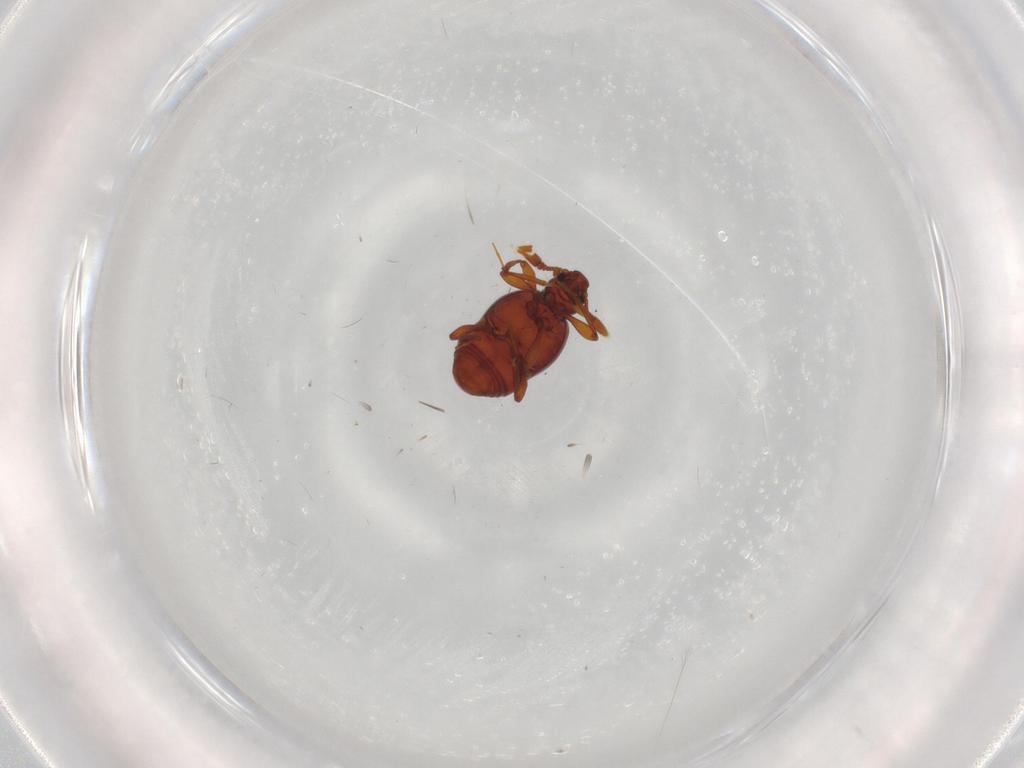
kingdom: Animalia
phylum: Arthropoda
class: Insecta
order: Coleoptera
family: Staphylinidae
